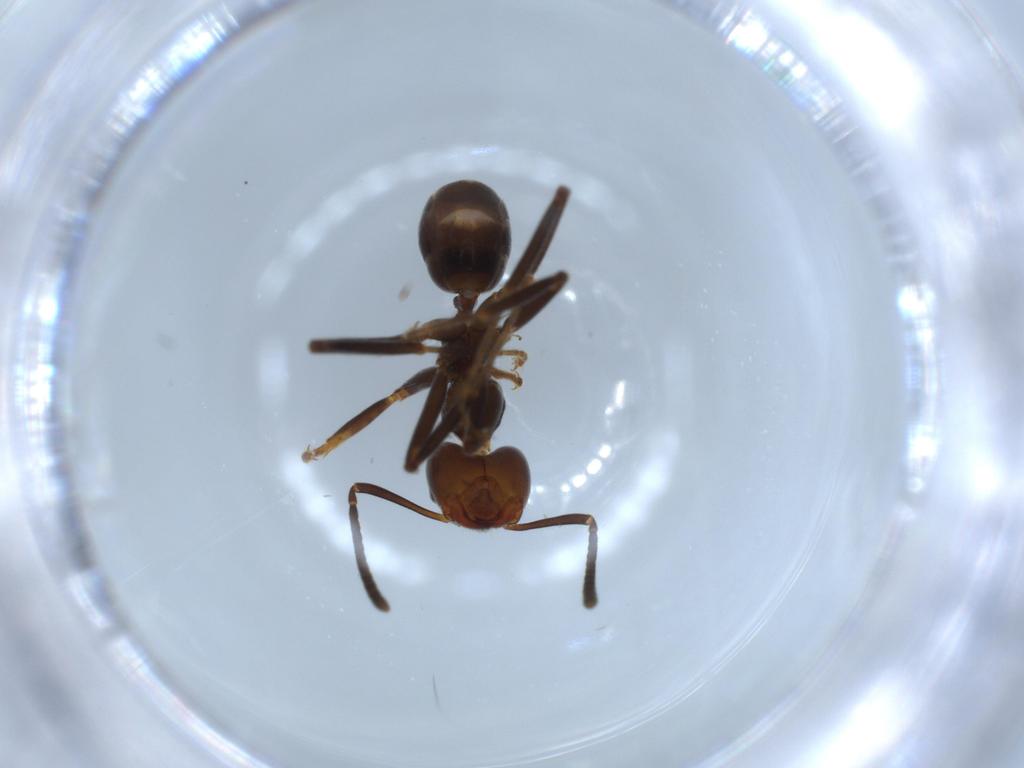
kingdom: Animalia
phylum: Arthropoda
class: Insecta
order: Hymenoptera
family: Formicidae
